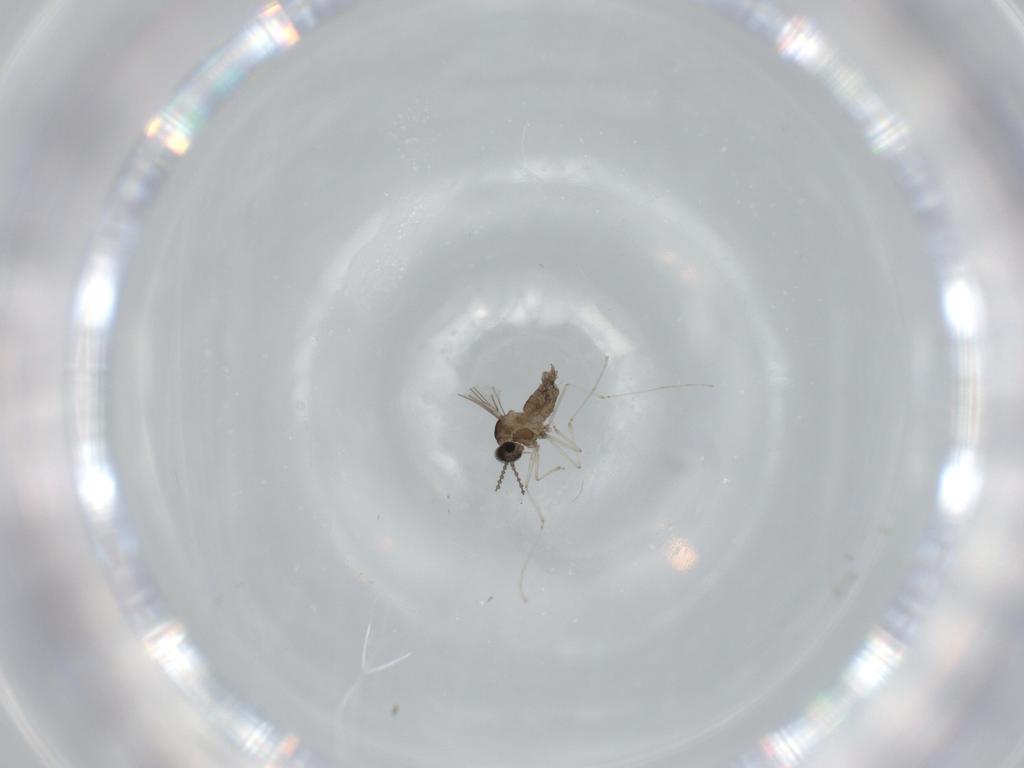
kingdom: Animalia
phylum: Arthropoda
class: Insecta
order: Diptera
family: Cecidomyiidae
